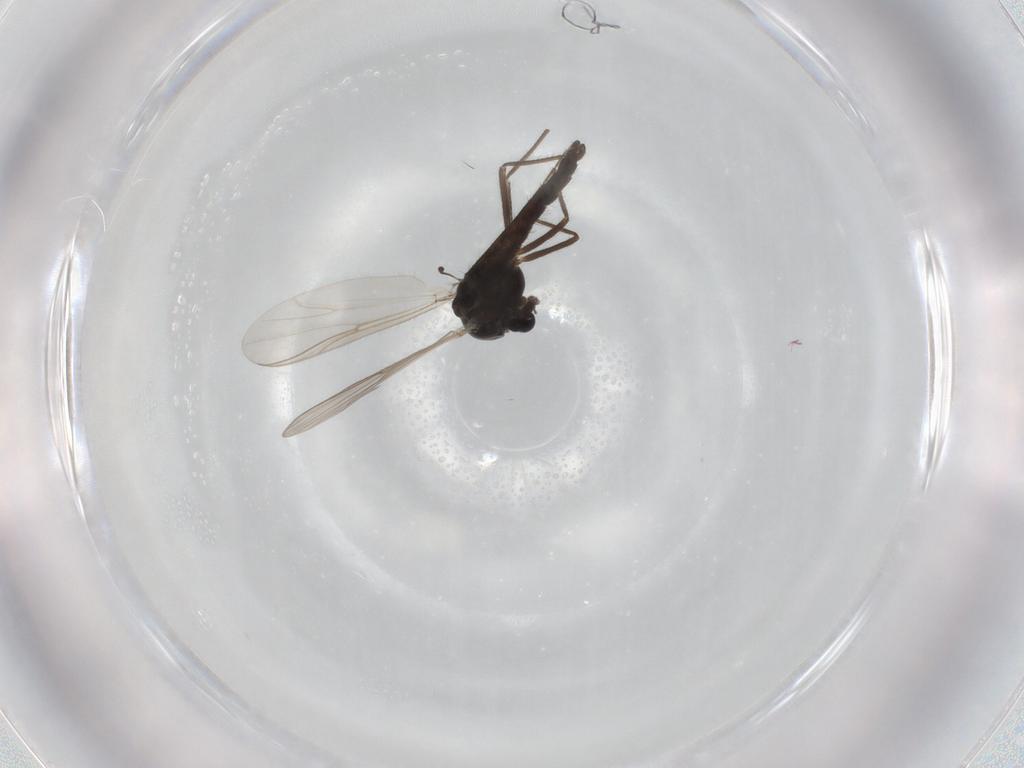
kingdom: Animalia
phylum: Arthropoda
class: Insecta
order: Diptera
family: Chironomidae
